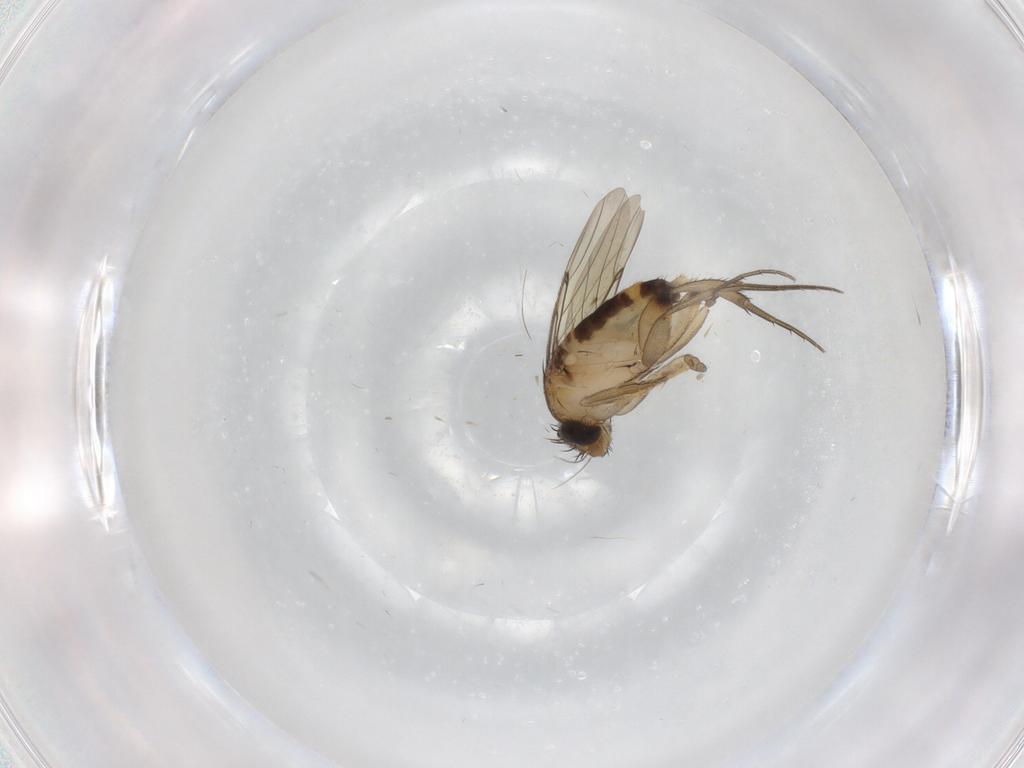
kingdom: Animalia
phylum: Arthropoda
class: Insecta
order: Diptera
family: Phoridae
